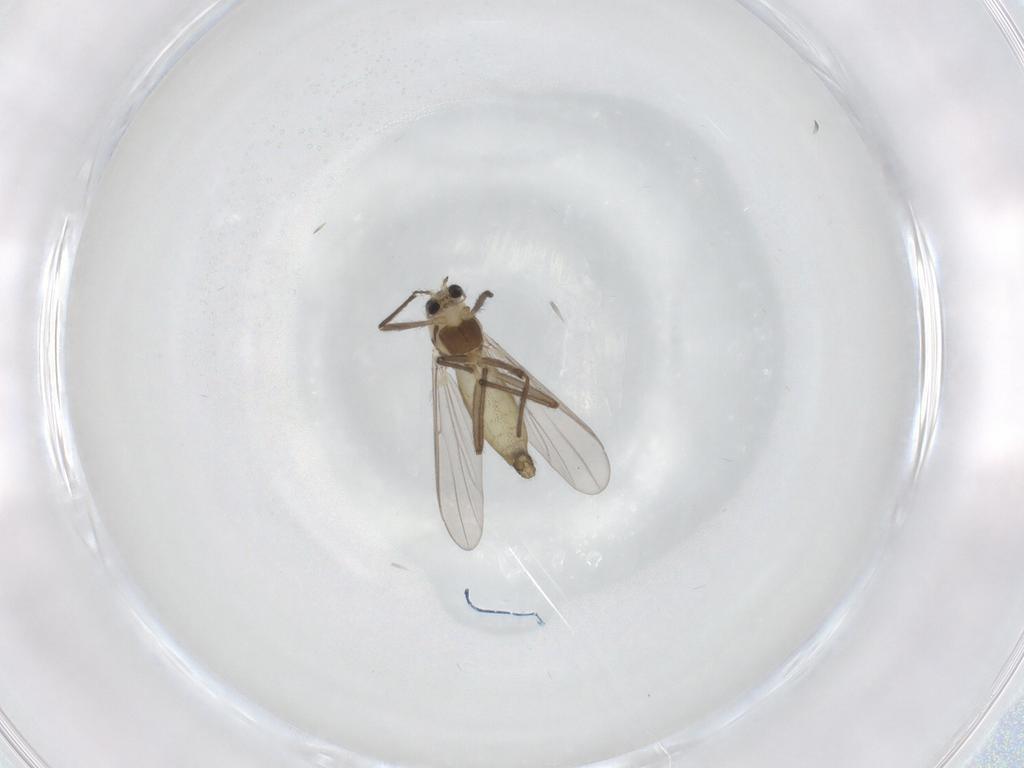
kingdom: Animalia
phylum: Arthropoda
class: Insecta
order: Diptera
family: Chironomidae
